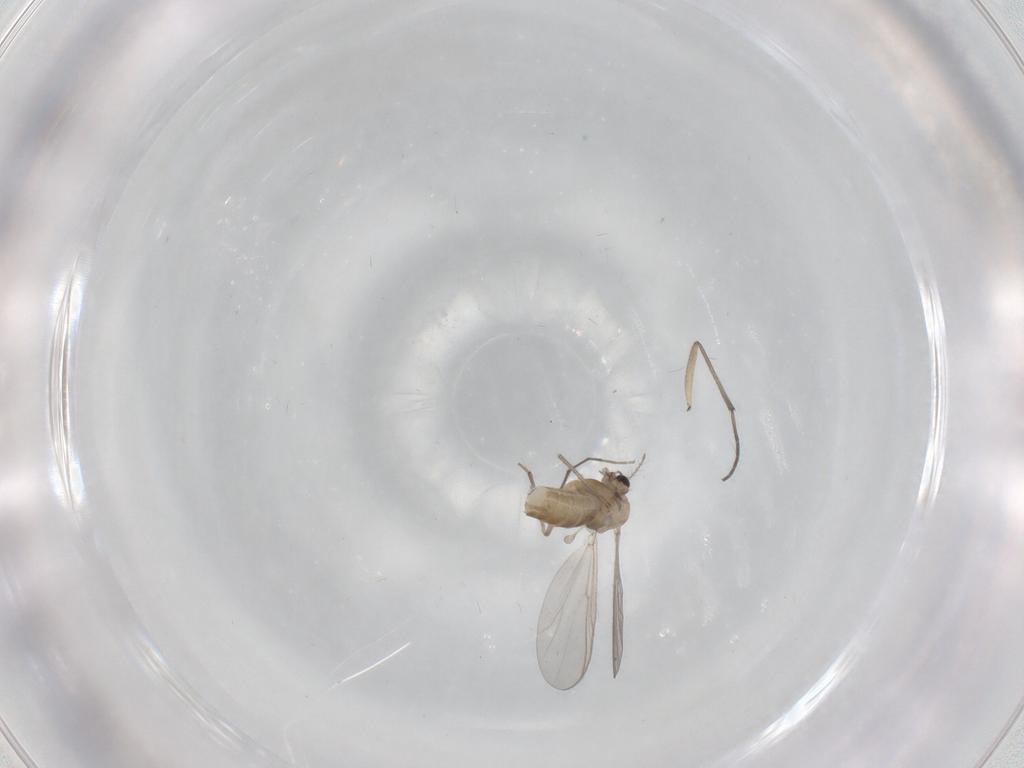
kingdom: Animalia
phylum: Arthropoda
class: Insecta
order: Diptera
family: Chironomidae
